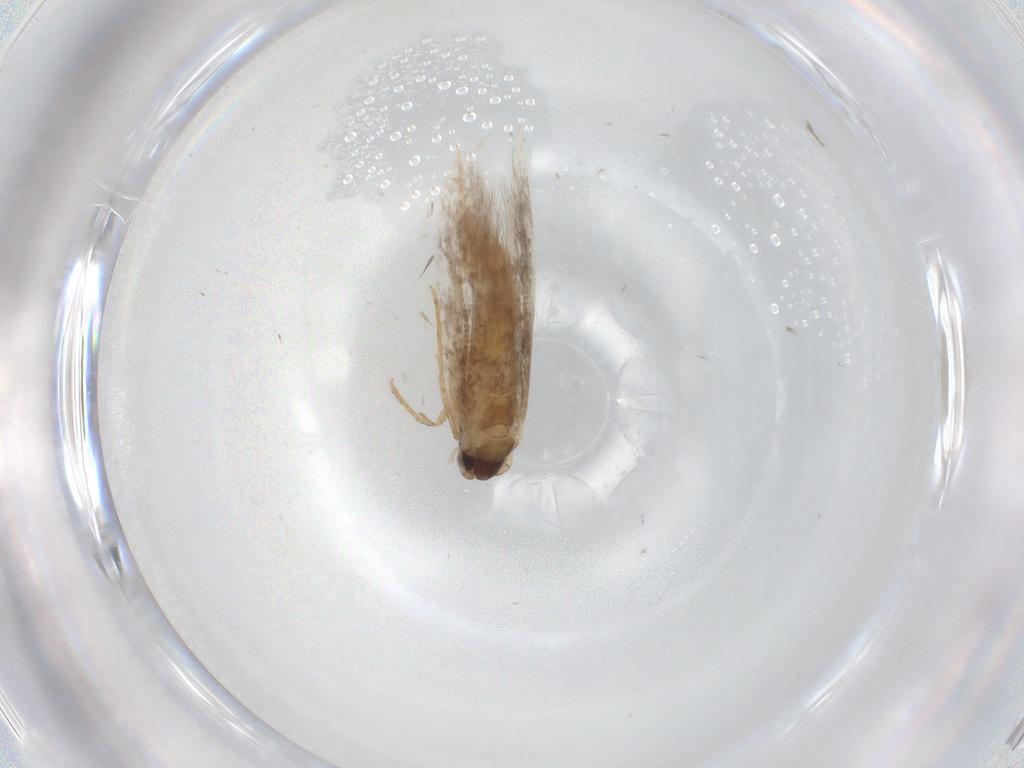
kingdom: Animalia
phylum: Arthropoda
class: Insecta
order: Lepidoptera
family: Tineidae
